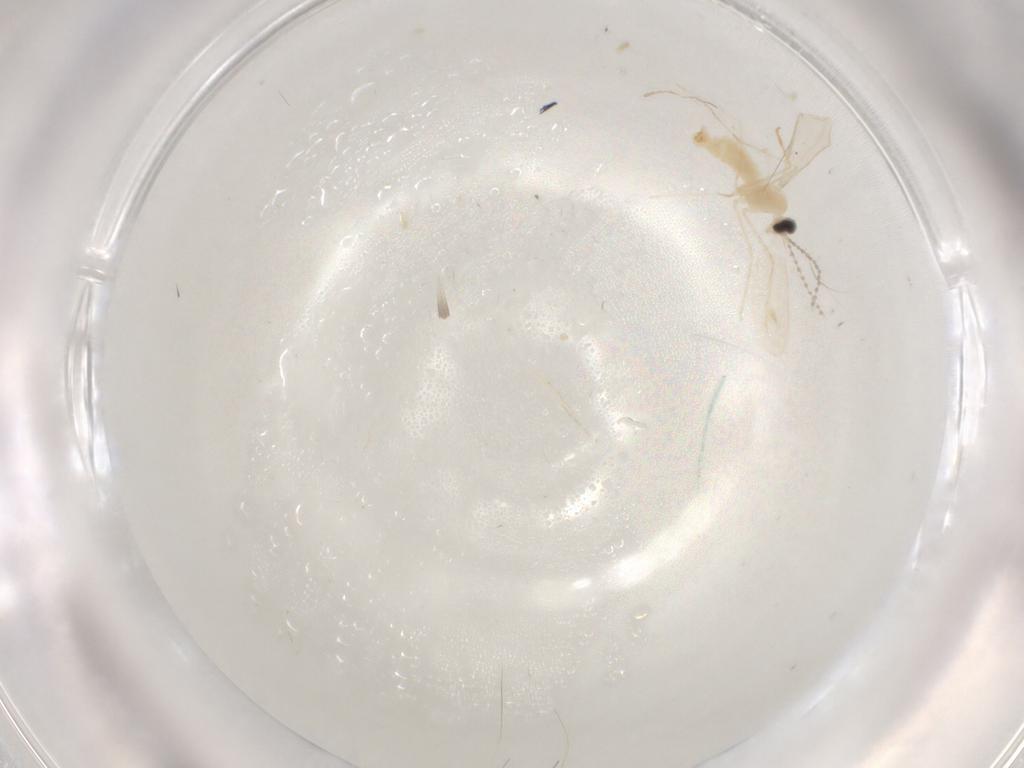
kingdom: Animalia
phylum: Arthropoda
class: Insecta
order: Diptera
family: Cecidomyiidae
